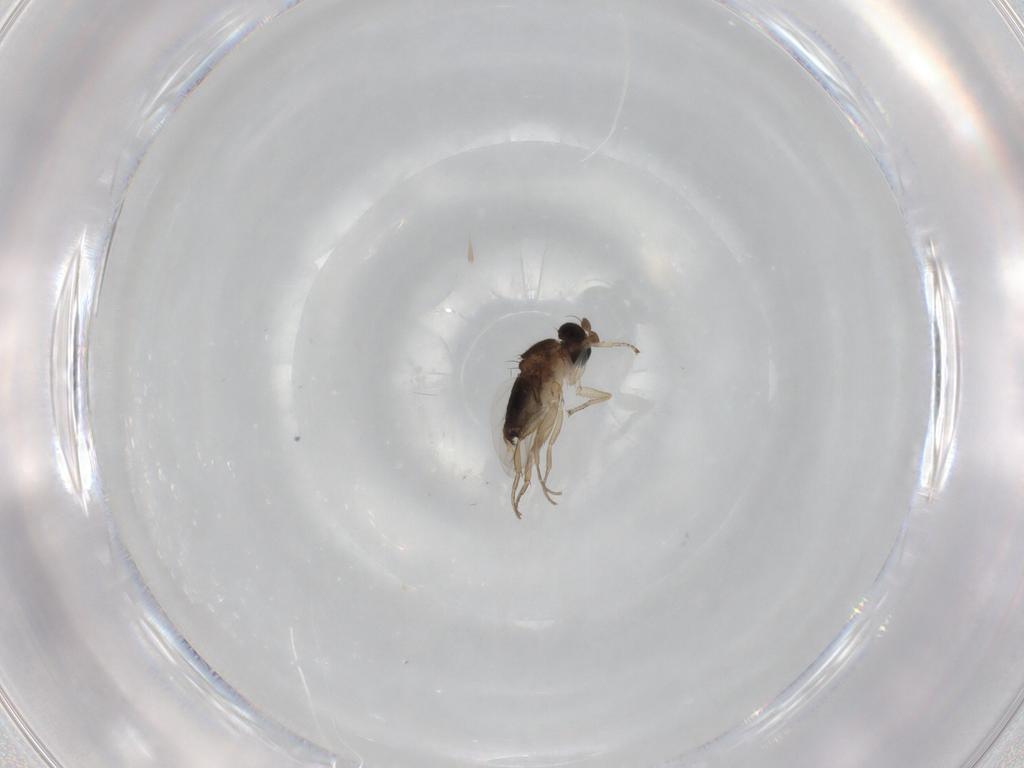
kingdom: Animalia
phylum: Arthropoda
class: Insecta
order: Diptera
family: Phoridae
